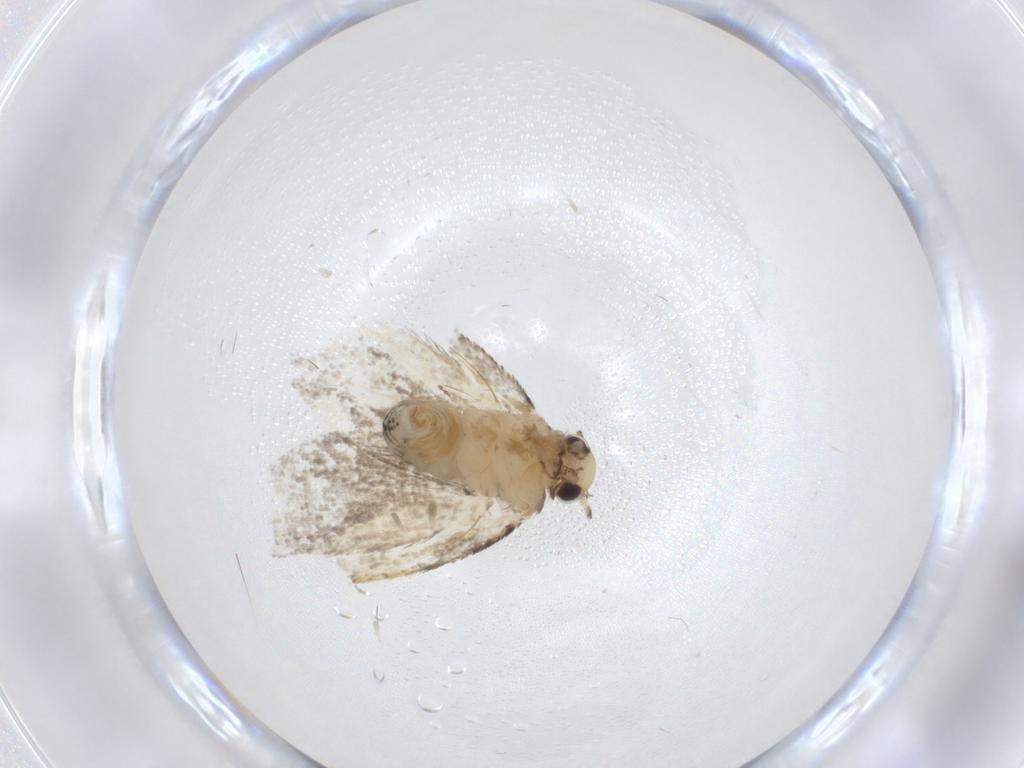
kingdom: Animalia
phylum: Arthropoda
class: Insecta
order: Lepidoptera
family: Psychidae
